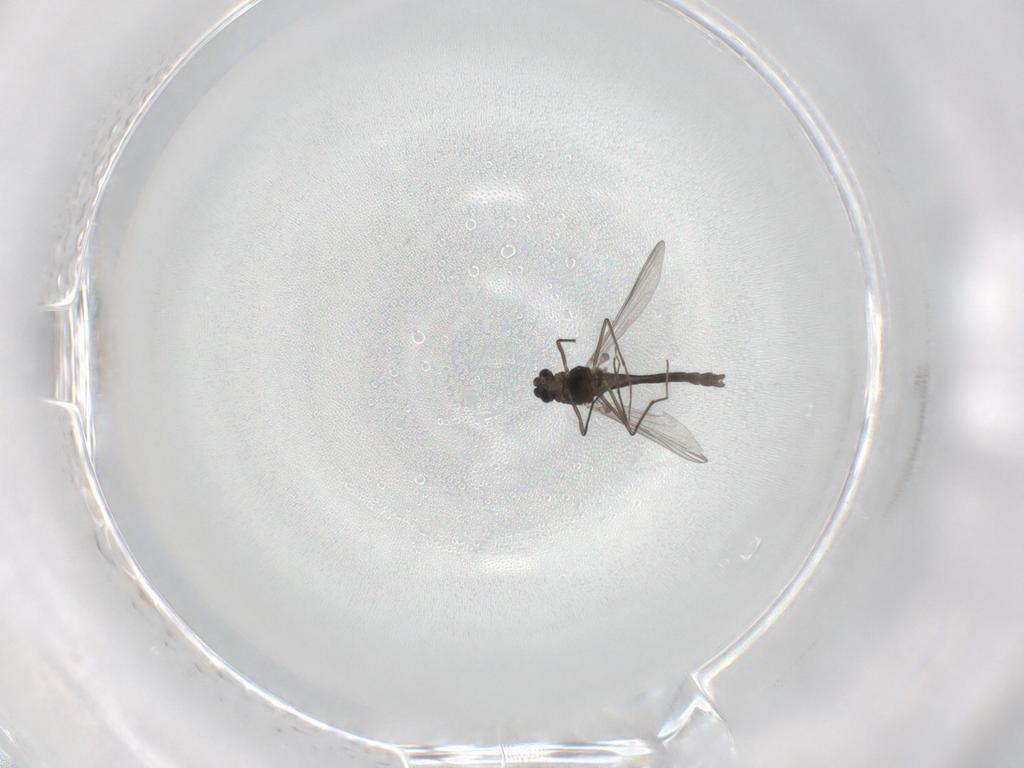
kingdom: Animalia
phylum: Arthropoda
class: Insecta
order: Diptera
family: Chironomidae
